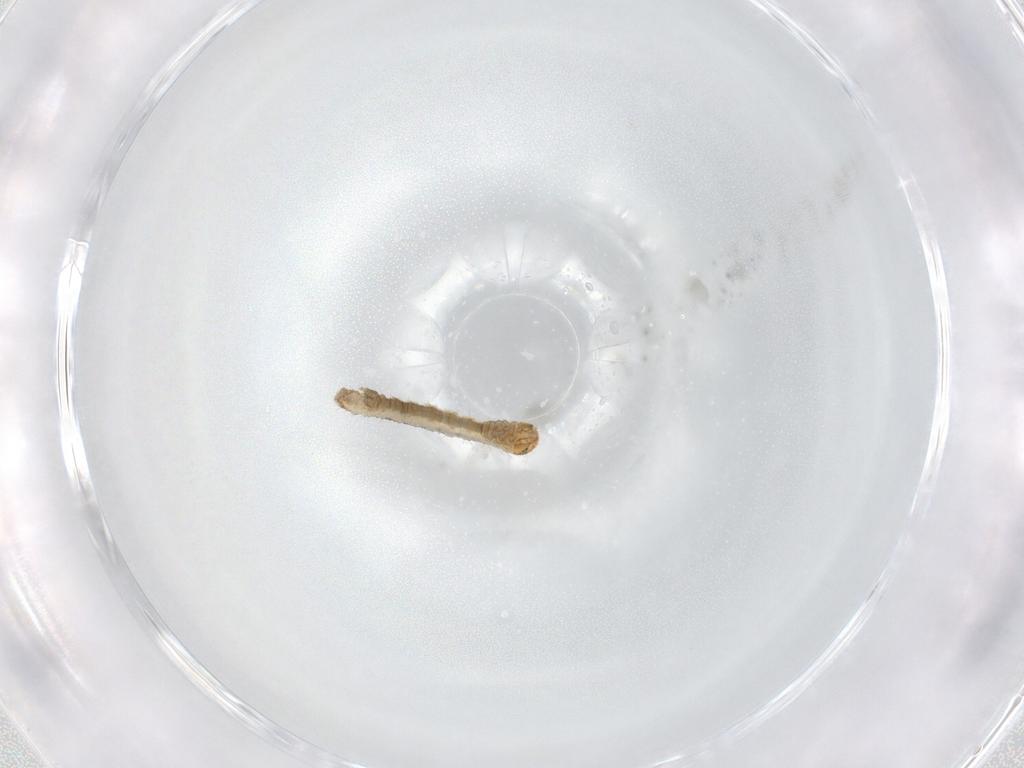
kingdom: Animalia
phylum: Arthropoda
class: Insecta
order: Lepidoptera
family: Geometridae
